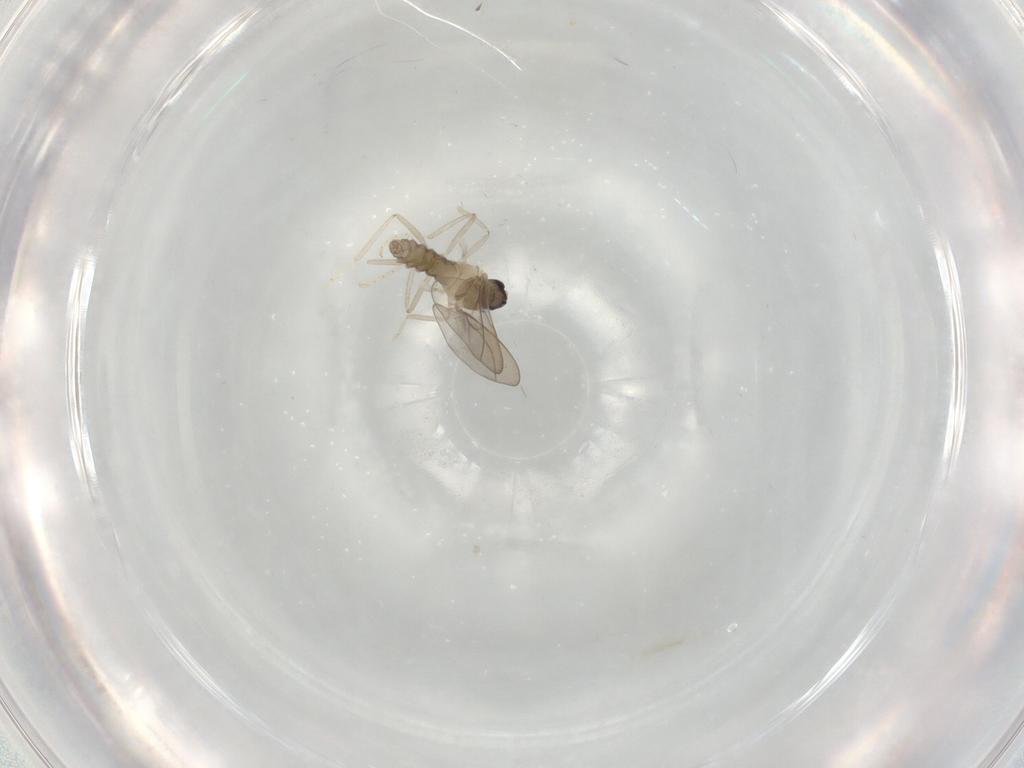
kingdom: Animalia
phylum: Arthropoda
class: Insecta
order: Diptera
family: Cecidomyiidae
